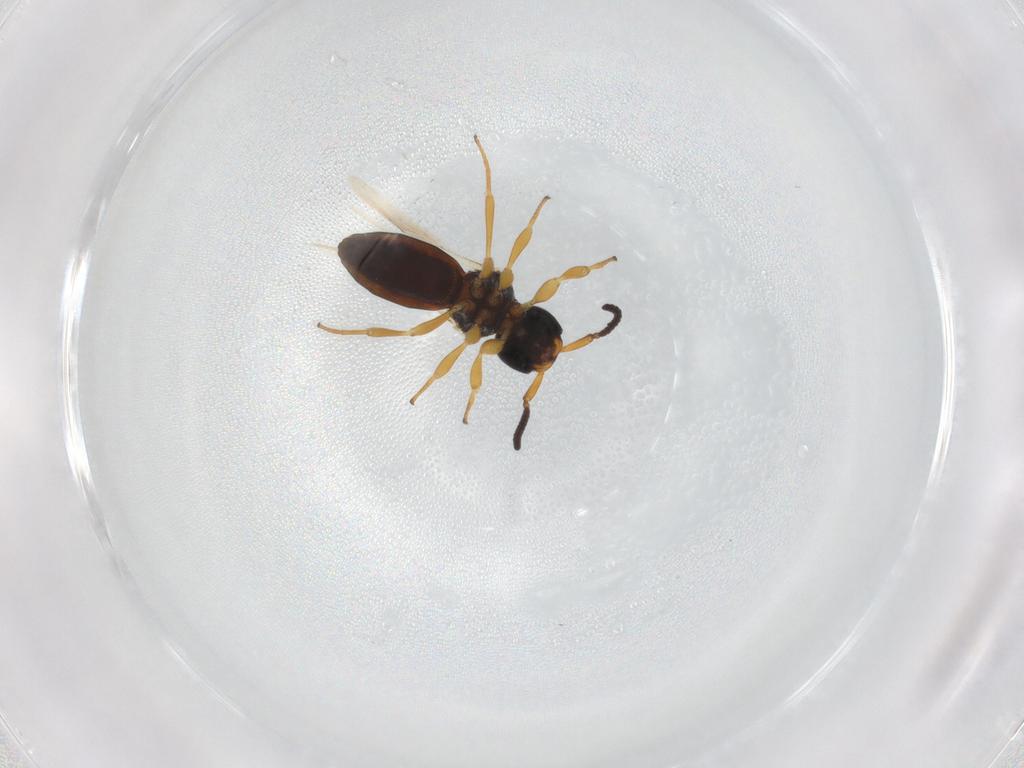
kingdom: Animalia
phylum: Arthropoda
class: Insecta
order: Hymenoptera
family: Scelionidae
